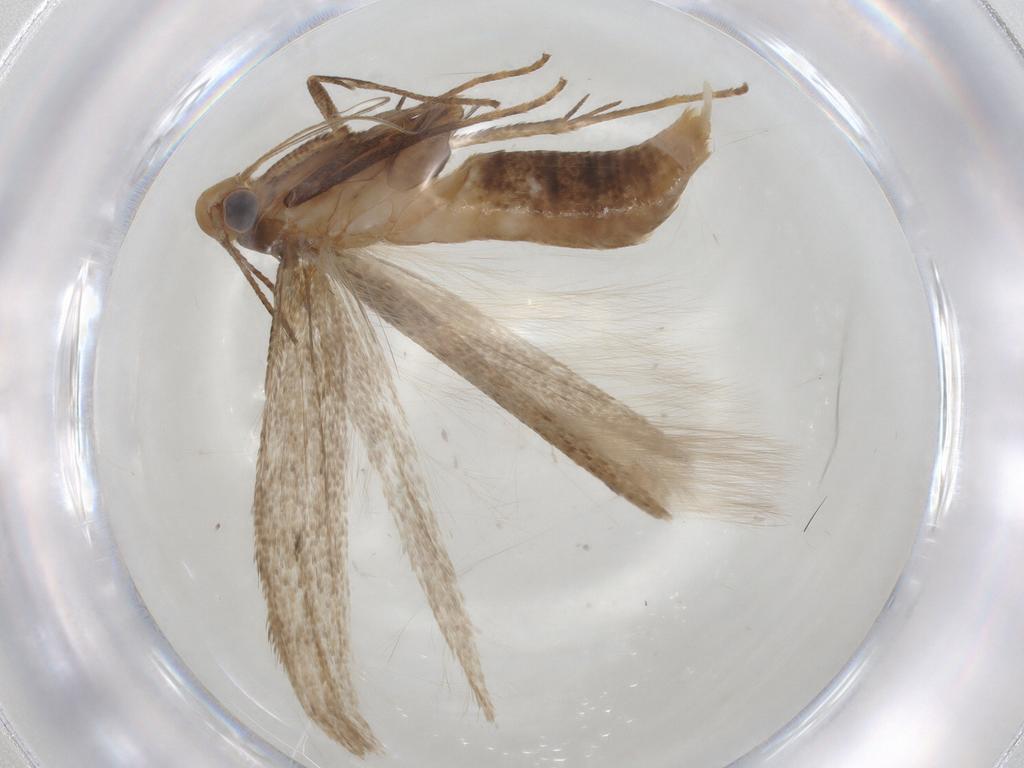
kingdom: Animalia
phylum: Arthropoda
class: Insecta
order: Lepidoptera
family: Noctuidae
